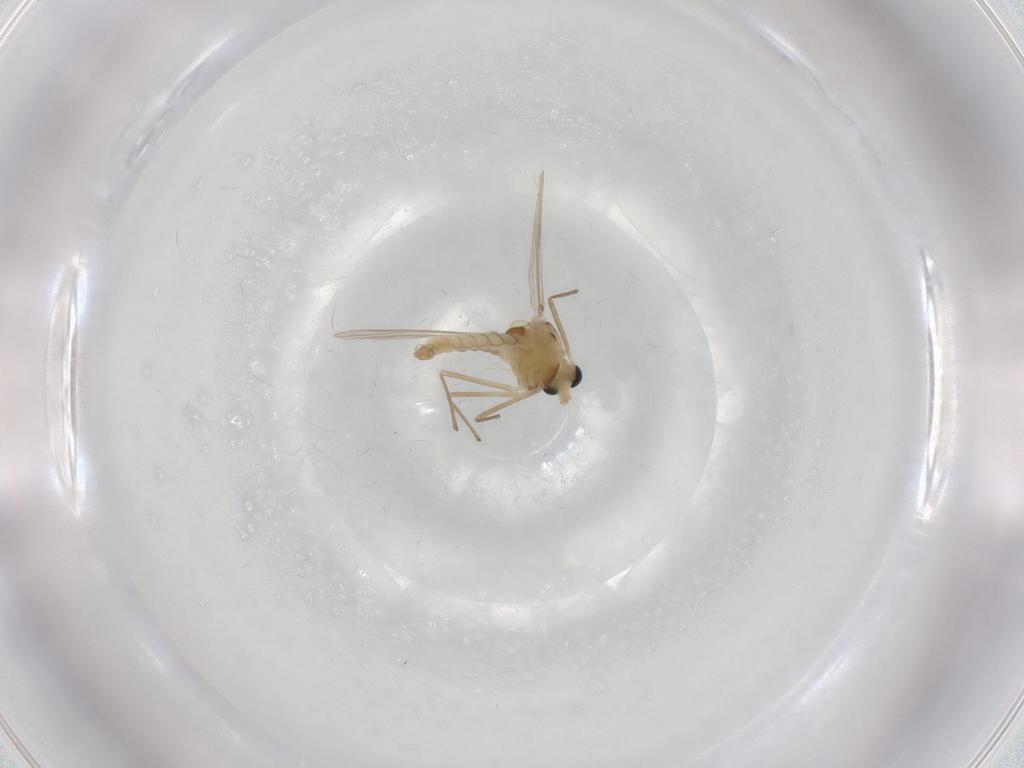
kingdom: Animalia
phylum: Arthropoda
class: Insecta
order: Diptera
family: Chironomidae
